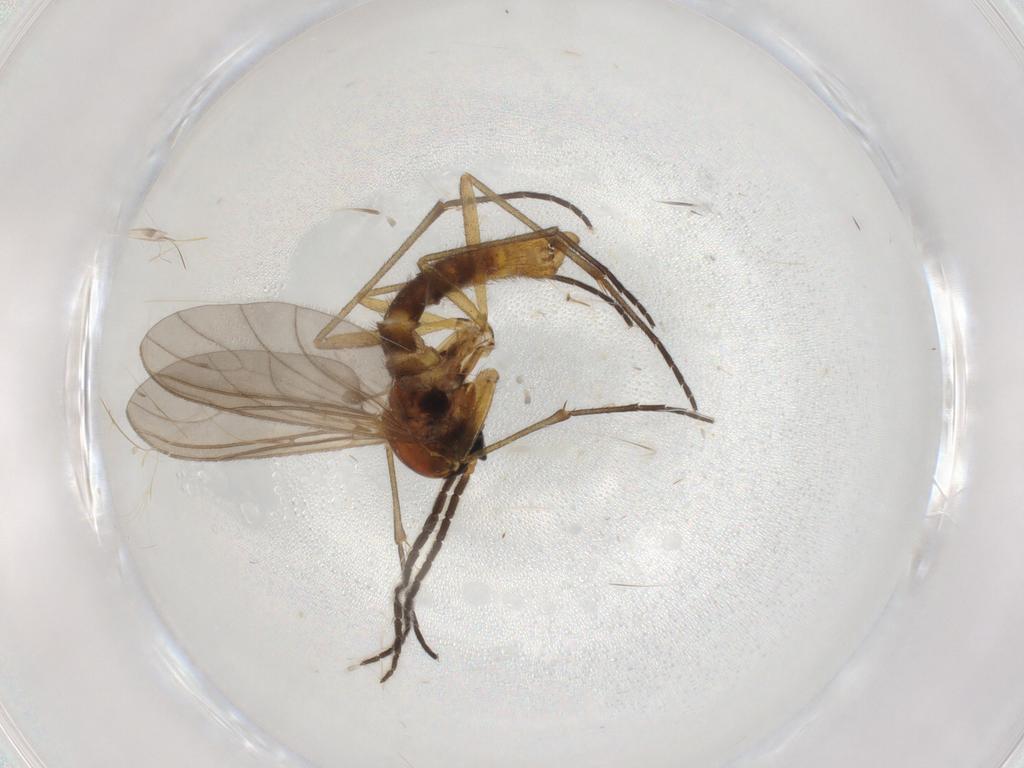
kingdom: Animalia
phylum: Arthropoda
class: Insecta
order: Diptera
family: Sciaridae
